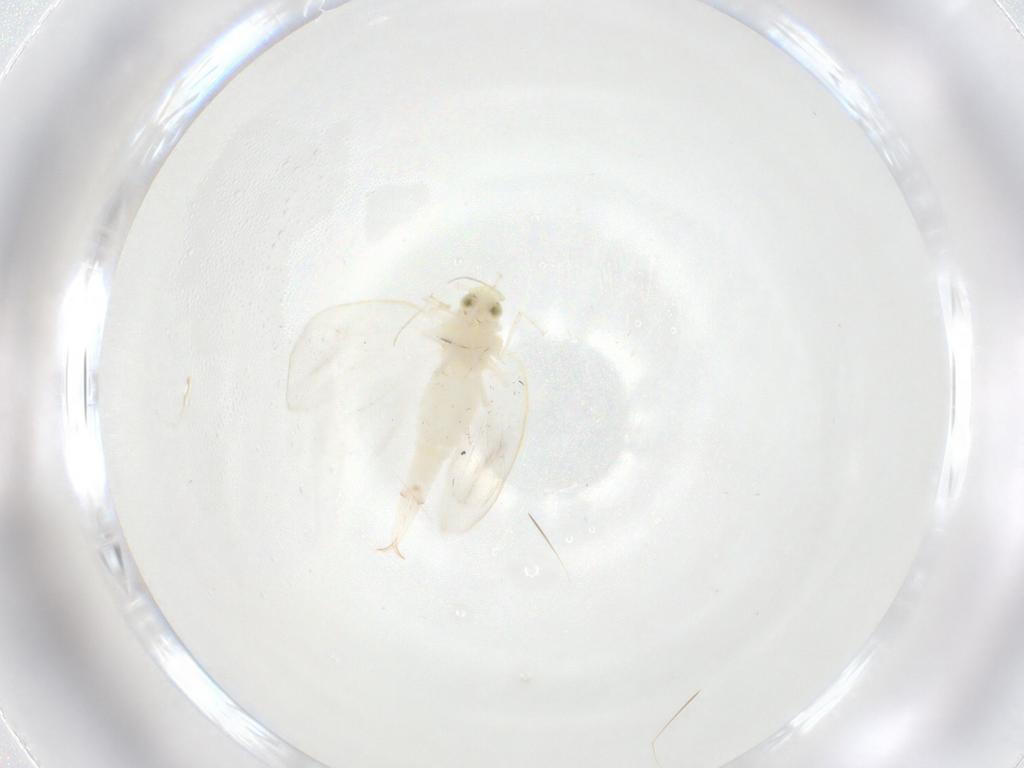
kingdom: Animalia
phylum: Arthropoda
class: Insecta
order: Hemiptera
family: Aleyrodidae
